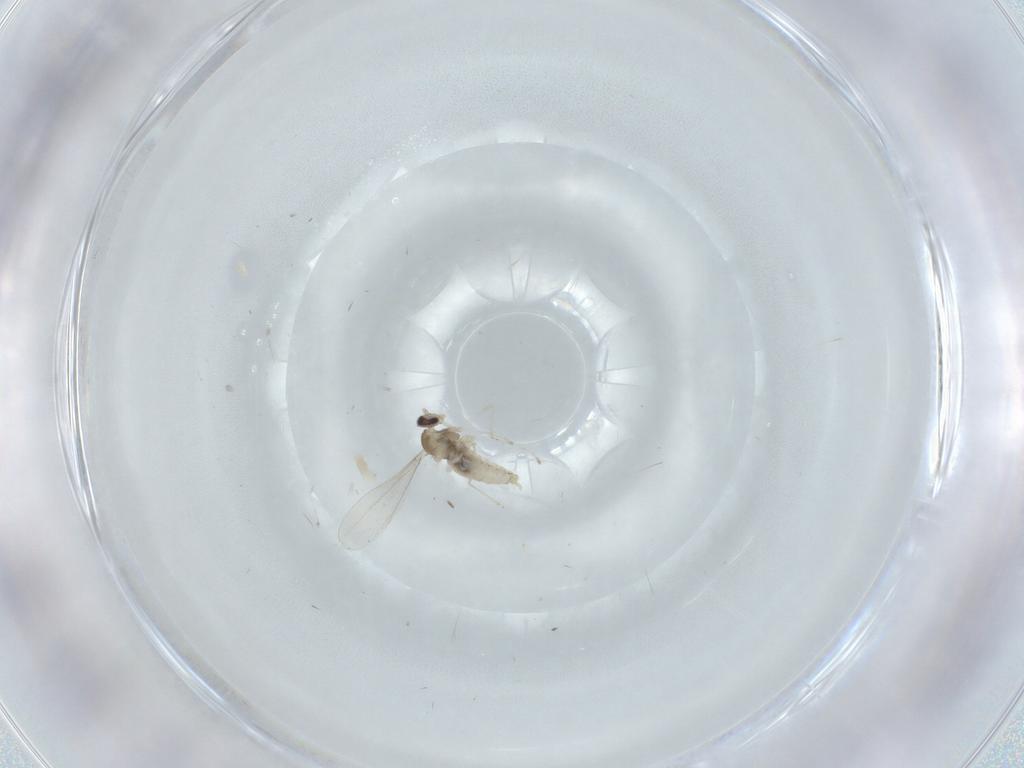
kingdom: Animalia
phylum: Arthropoda
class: Insecta
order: Diptera
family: Cecidomyiidae
